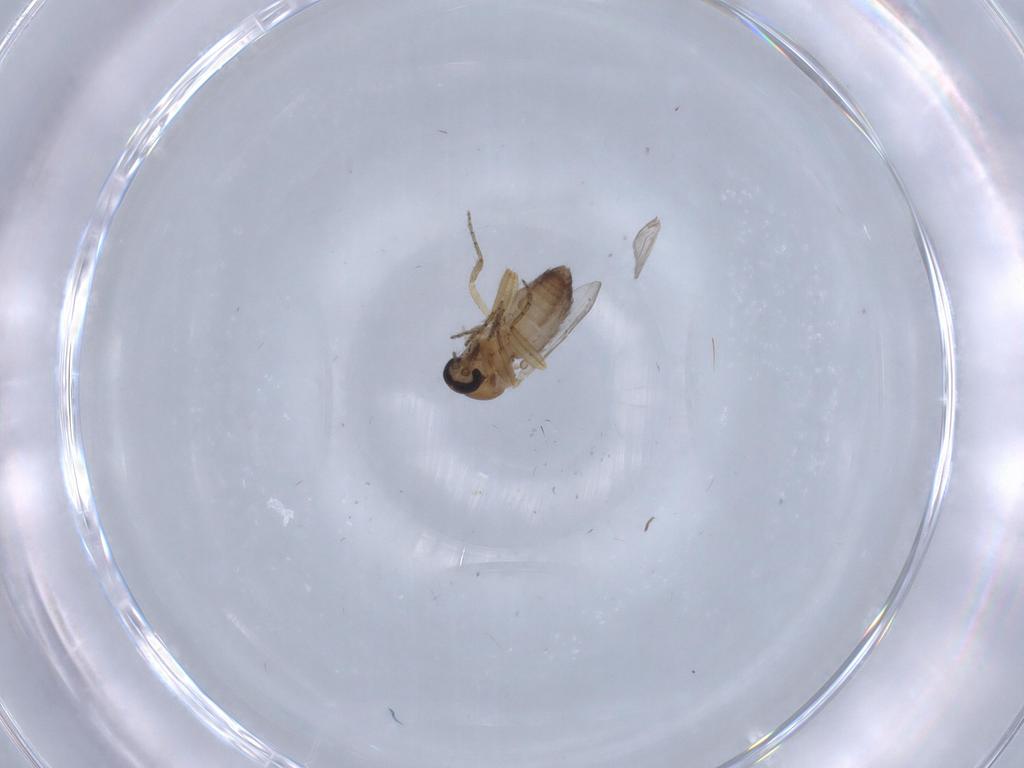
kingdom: Animalia
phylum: Arthropoda
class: Insecta
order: Diptera
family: Ceratopogonidae
